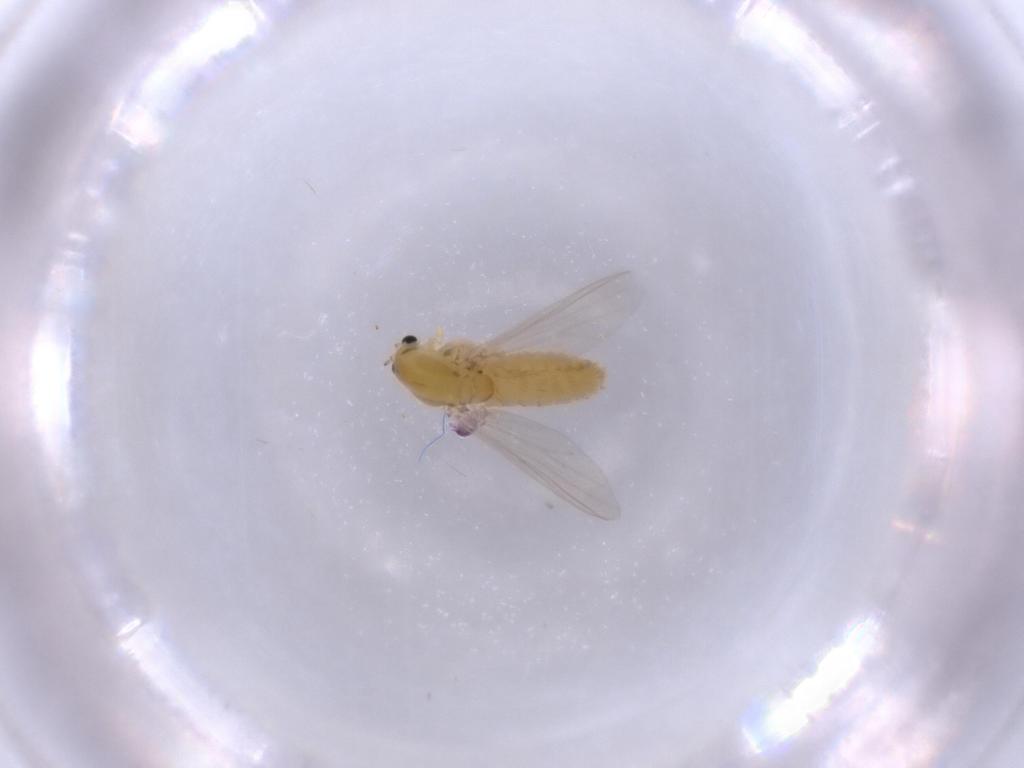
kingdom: Animalia
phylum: Arthropoda
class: Insecta
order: Diptera
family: Chironomidae
